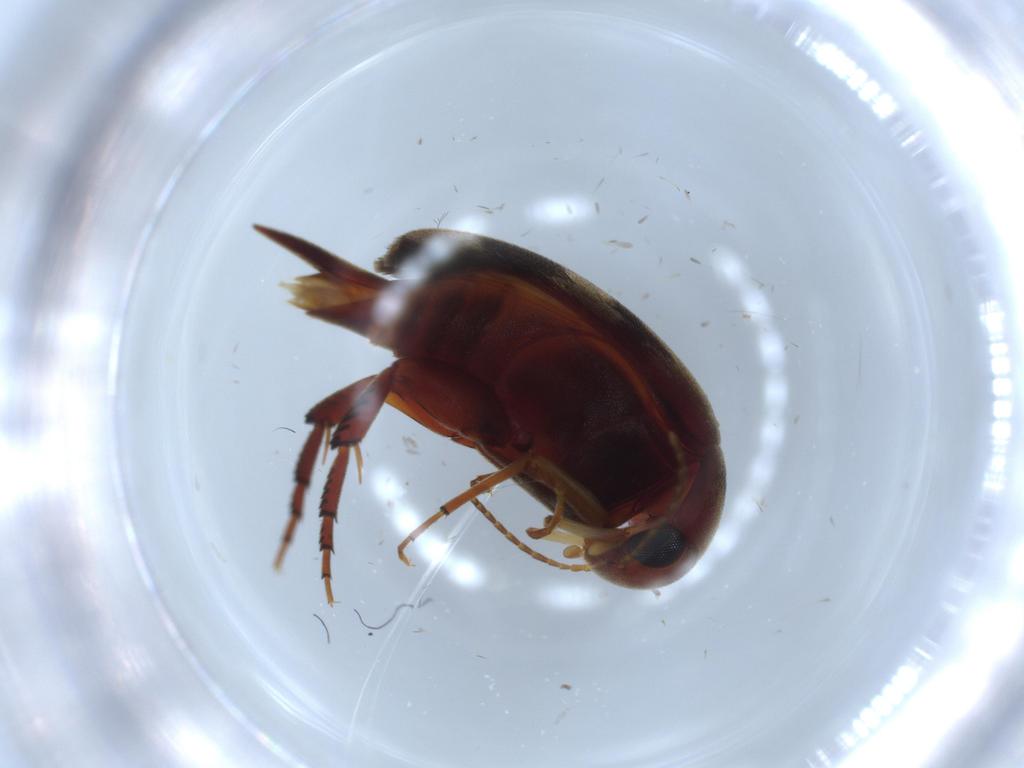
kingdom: Animalia
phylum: Arthropoda
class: Insecta
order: Coleoptera
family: Mordellidae
